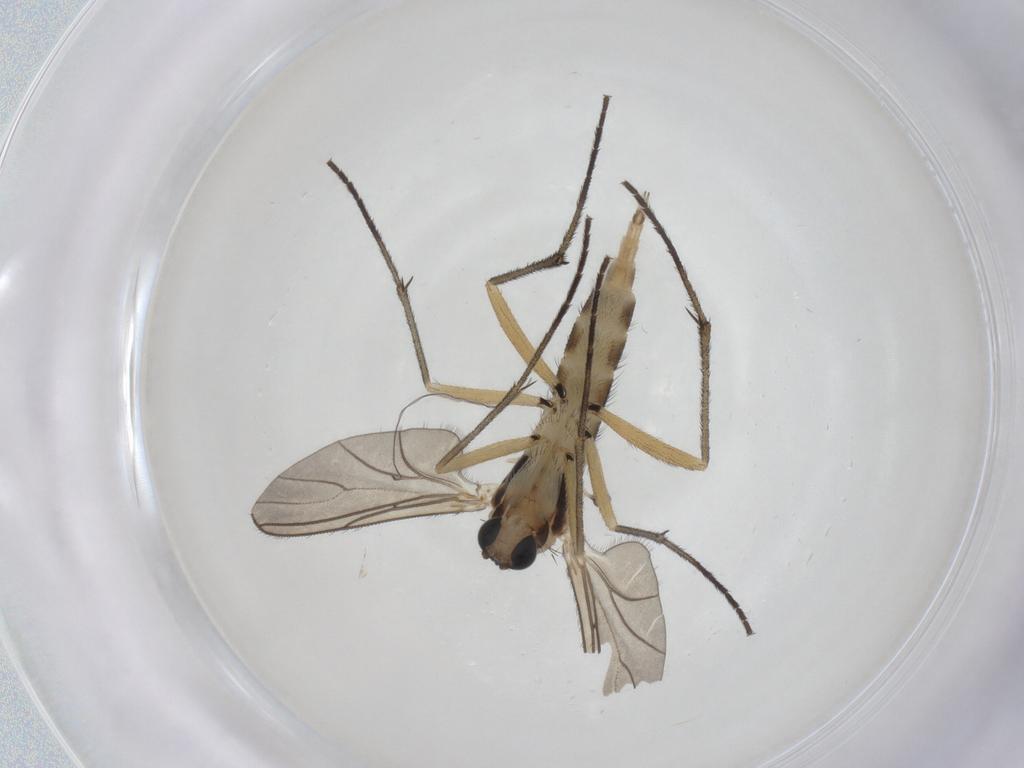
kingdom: Animalia
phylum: Arthropoda
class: Insecta
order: Diptera
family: Sciaridae
